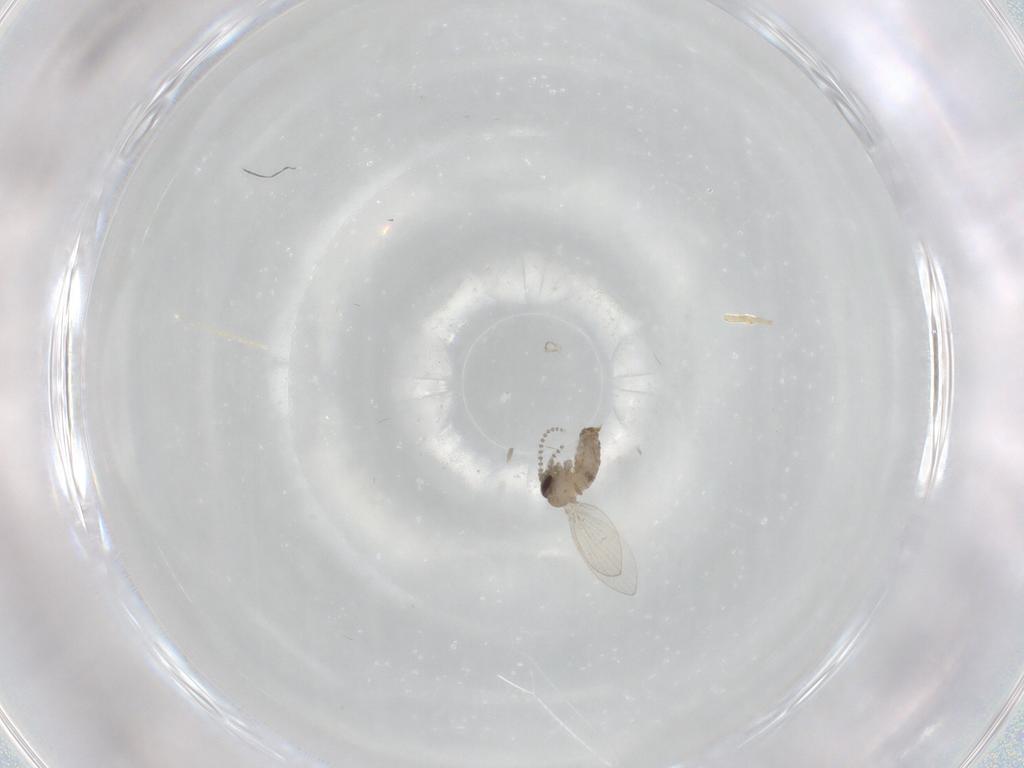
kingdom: Animalia
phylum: Arthropoda
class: Insecta
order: Diptera
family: Psychodidae
